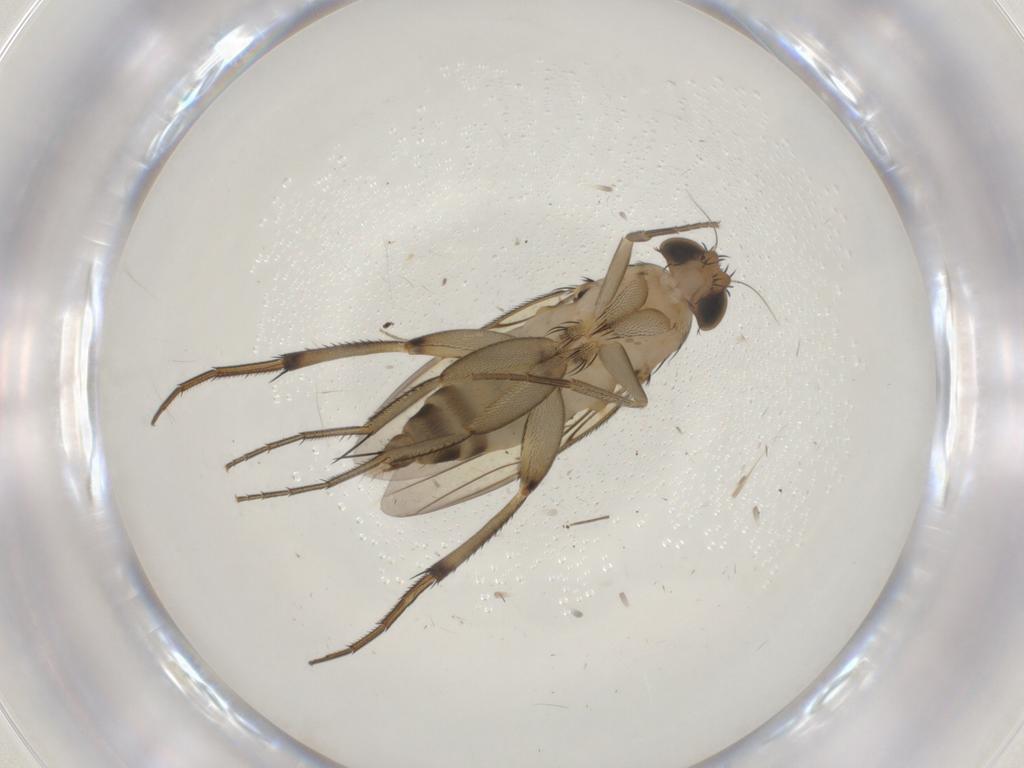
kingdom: Animalia
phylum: Arthropoda
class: Insecta
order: Diptera
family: Phoridae
